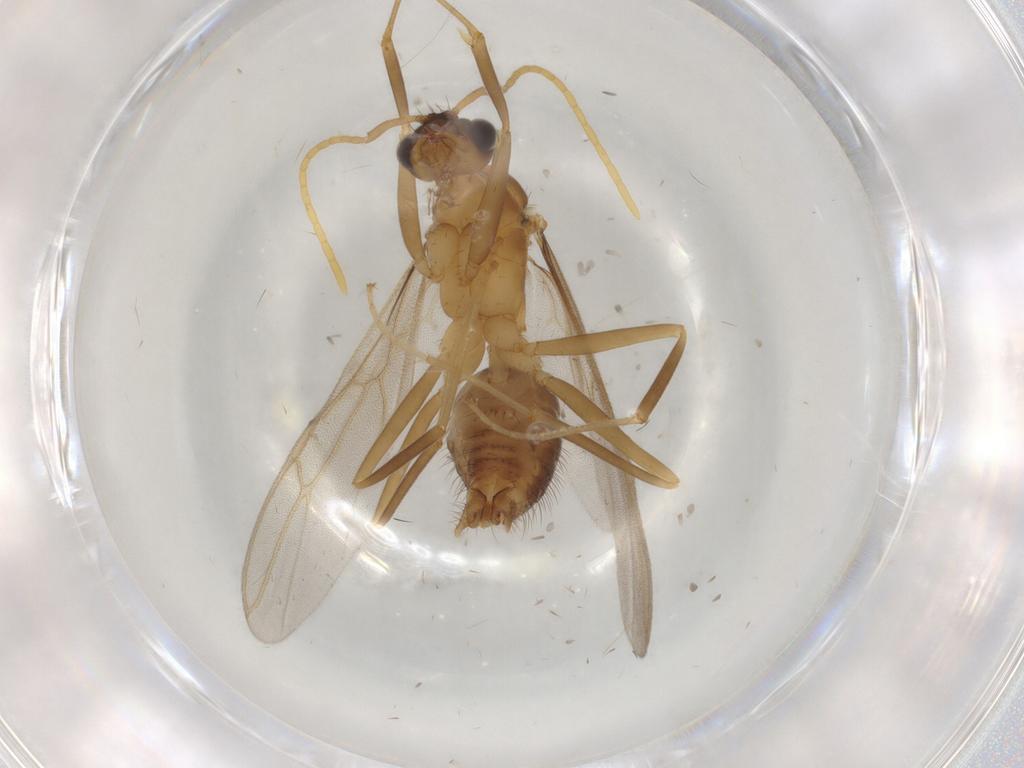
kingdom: Animalia
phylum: Arthropoda
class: Insecta
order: Hymenoptera
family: Formicidae
